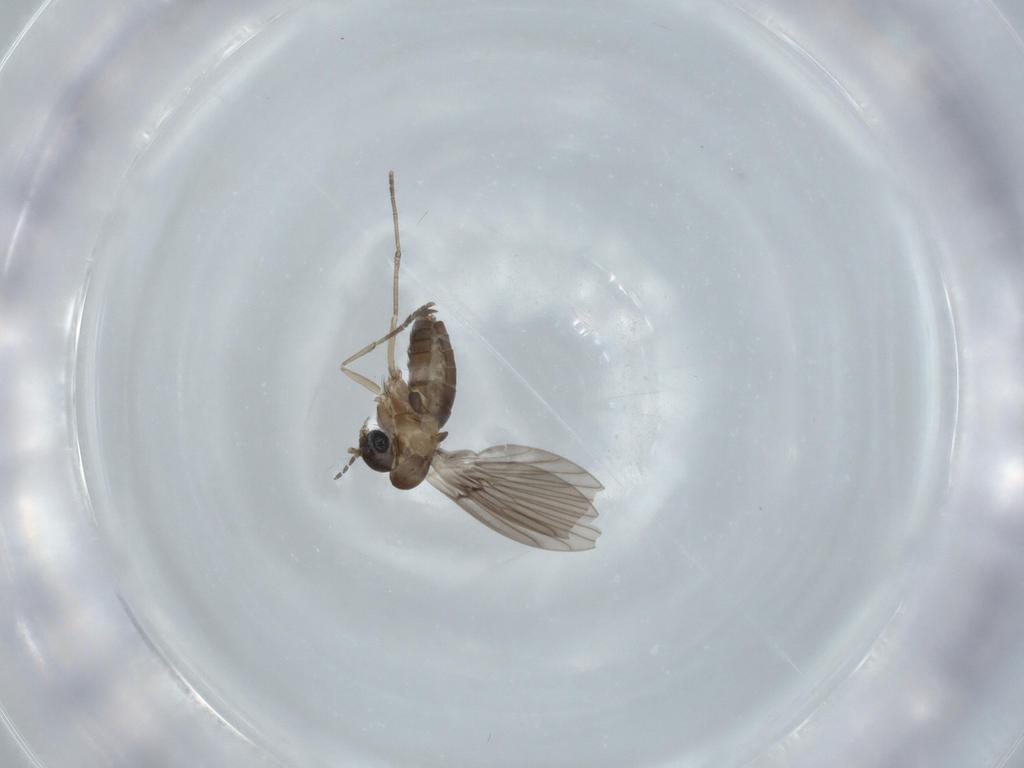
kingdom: Animalia
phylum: Arthropoda
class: Insecta
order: Diptera
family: Psychodidae
